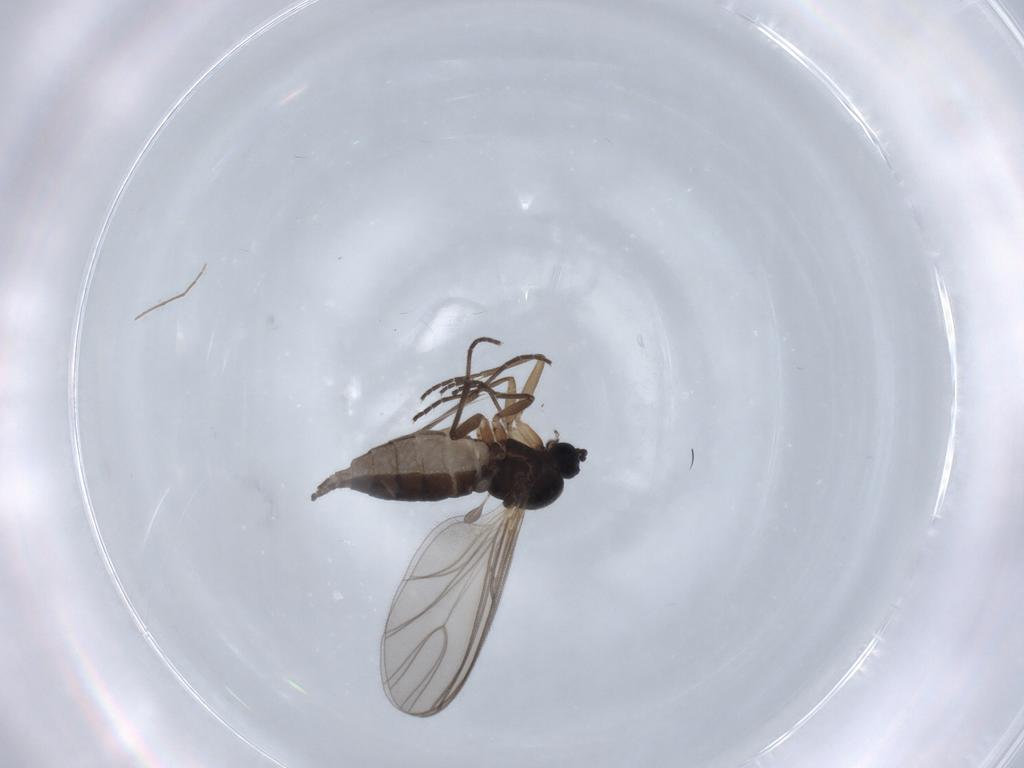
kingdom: Animalia
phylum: Arthropoda
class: Insecta
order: Diptera
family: Sciaridae
